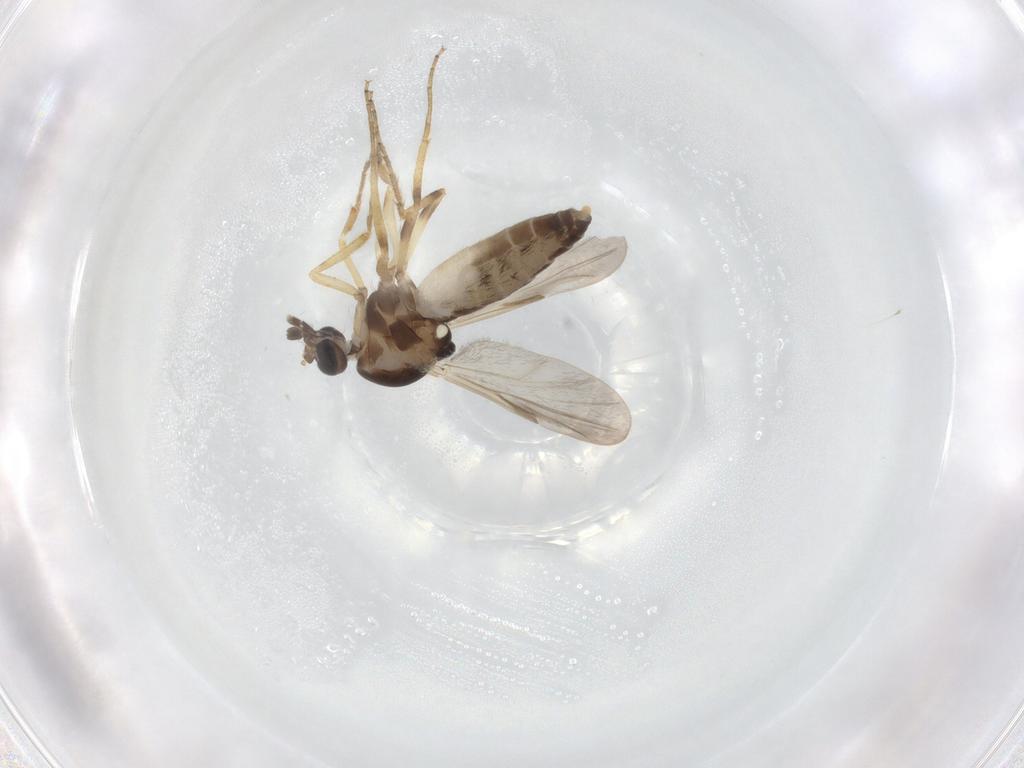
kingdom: Animalia
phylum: Arthropoda
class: Insecta
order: Diptera
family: Ceratopogonidae
